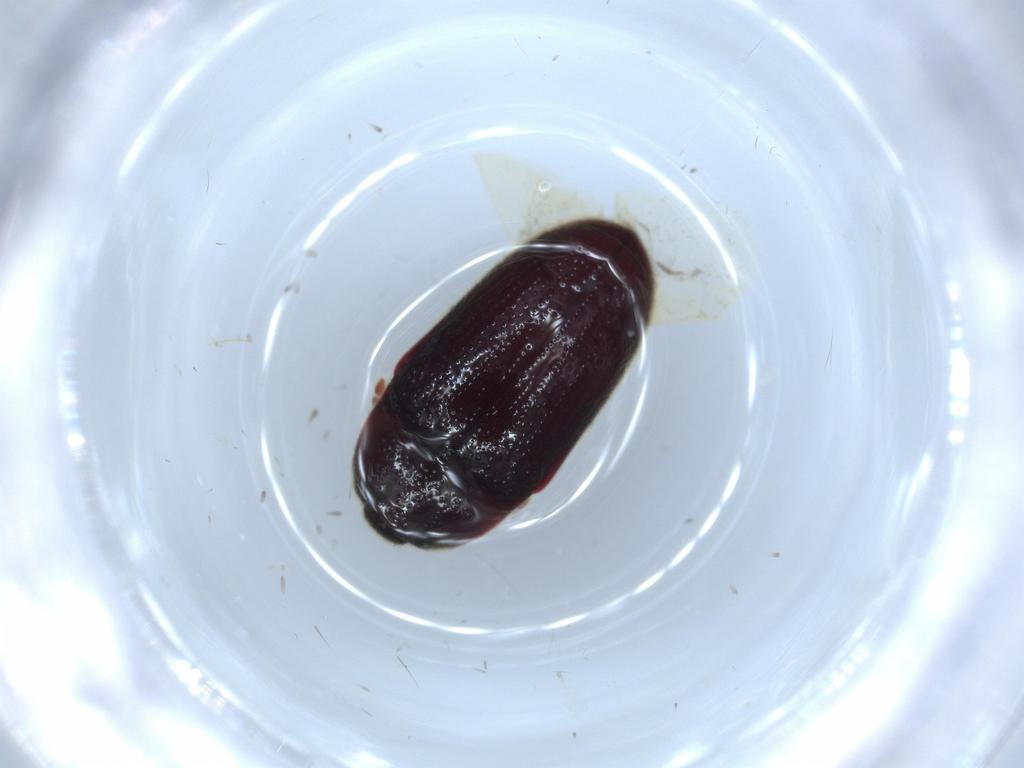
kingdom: Animalia
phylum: Arthropoda
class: Insecta
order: Coleoptera
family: Throscidae
